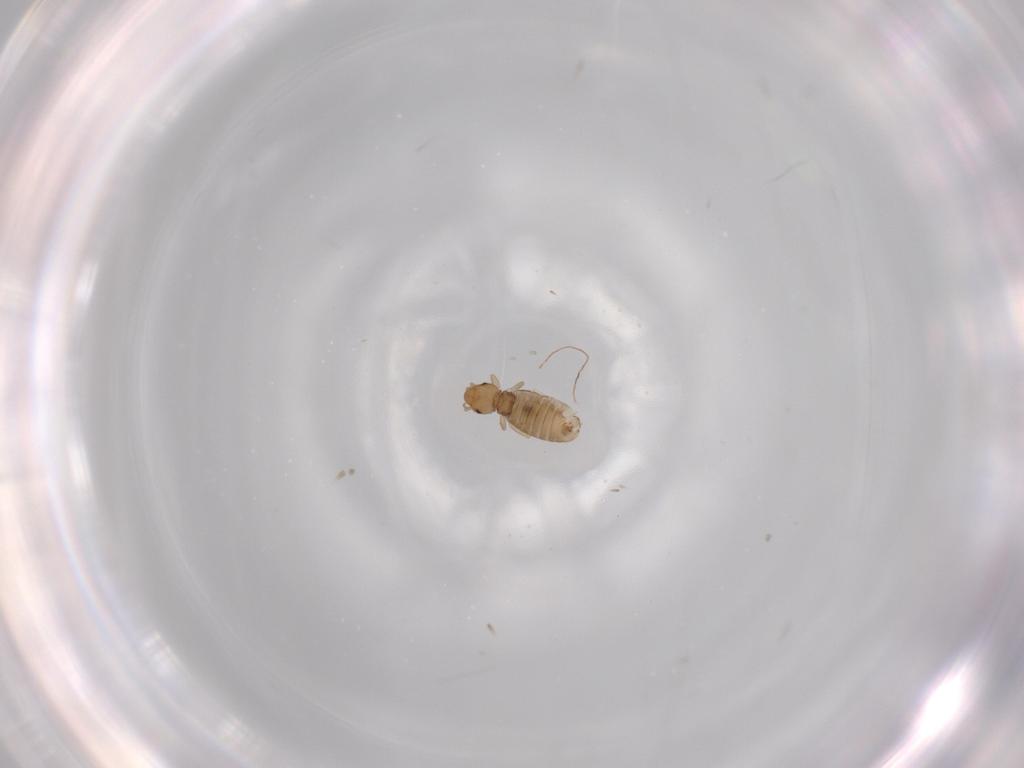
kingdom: Animalia
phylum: Arthropoda
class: Insecta
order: Psocodea
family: Liposcelididae
